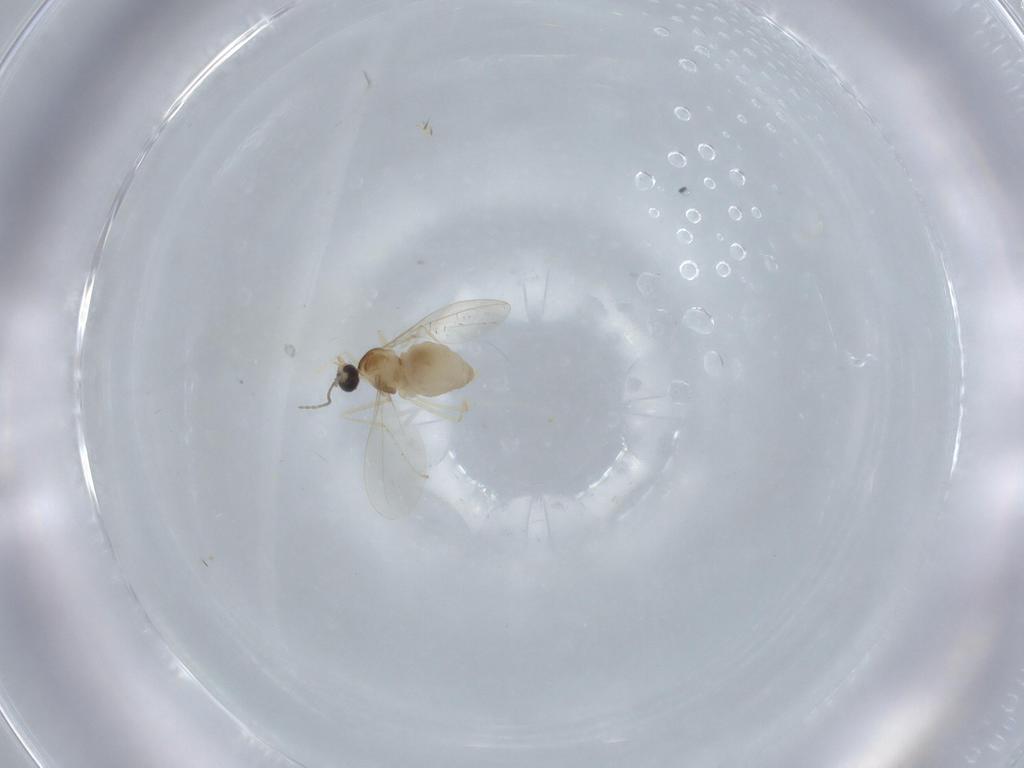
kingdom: Animalia
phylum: Arthropoda
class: Insecta
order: Diptera
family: Cecidomyiidae
